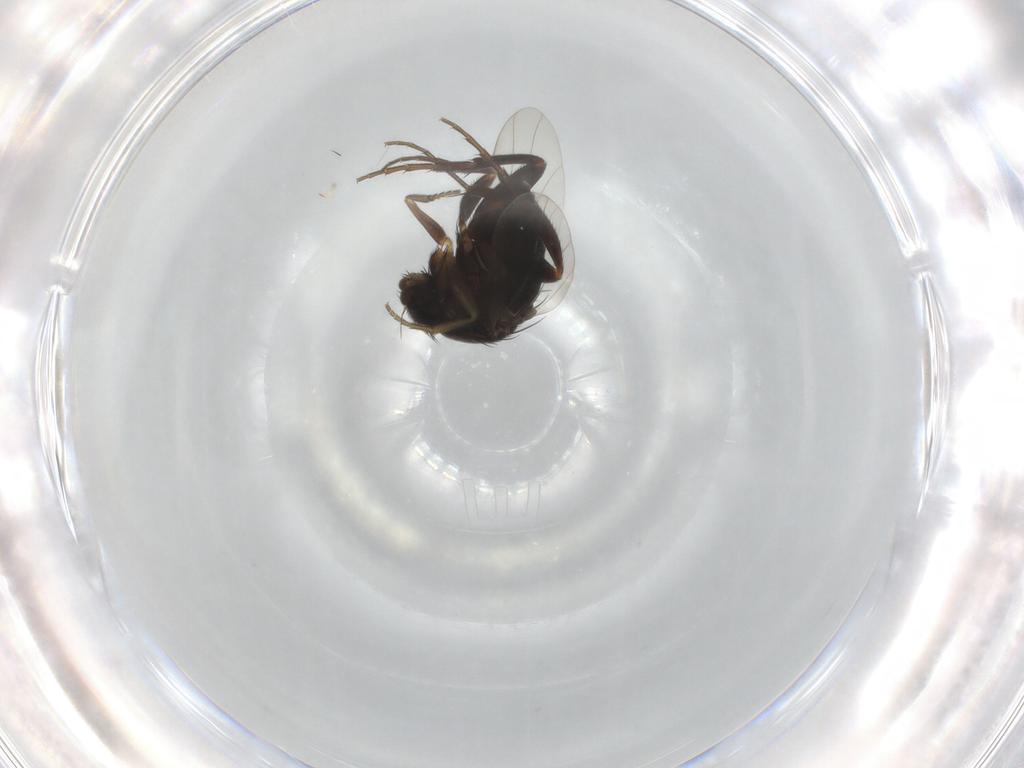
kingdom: Animalia
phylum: Arthropoda
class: Insecta
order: Diptera
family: Phoridae
